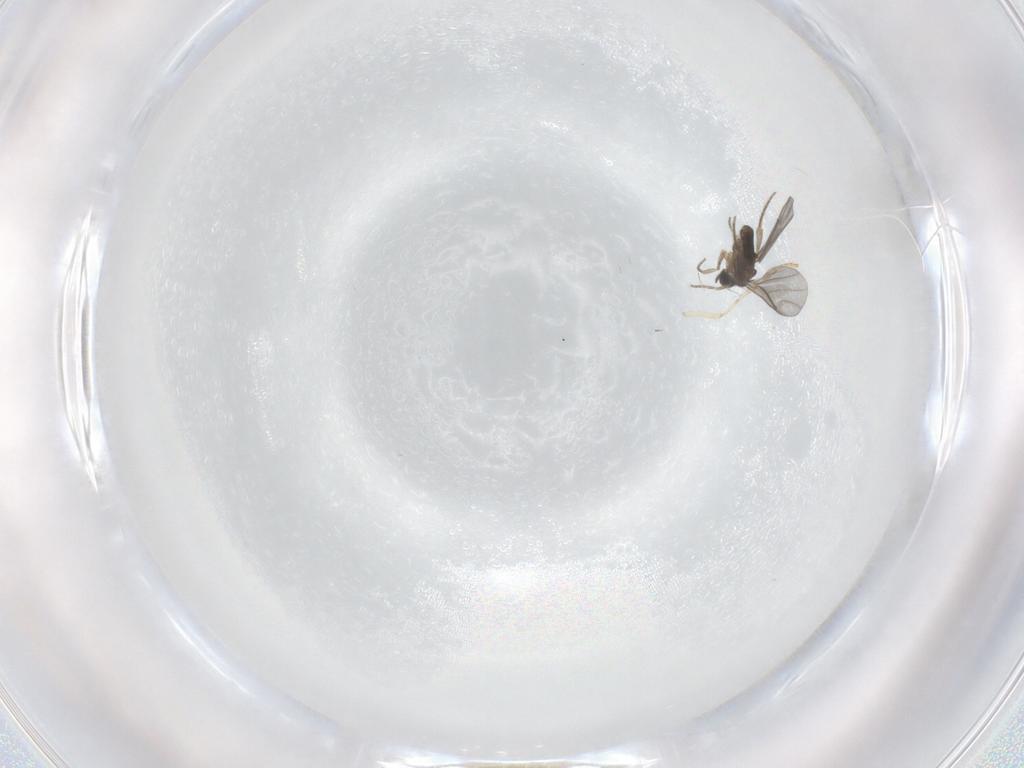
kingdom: Animalia
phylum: Arthropoda
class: Insecta
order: Diptera
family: Psychodidae
